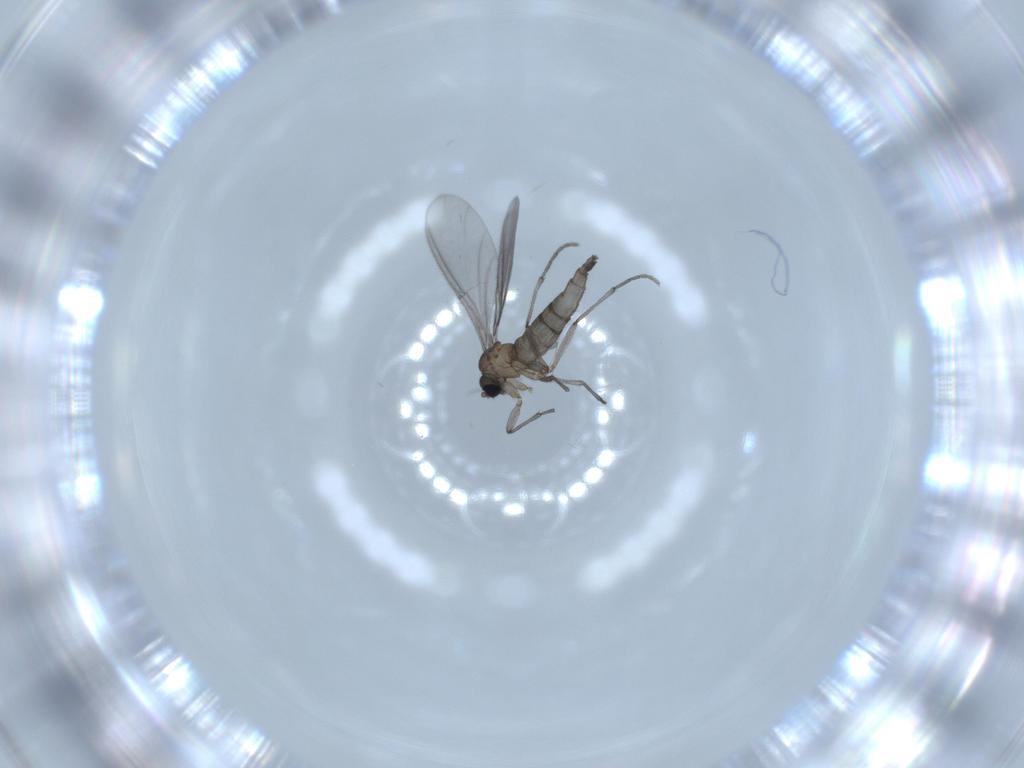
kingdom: Animalia
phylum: Arthropoda
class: Insecta
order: Diptera
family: Sciaridae
